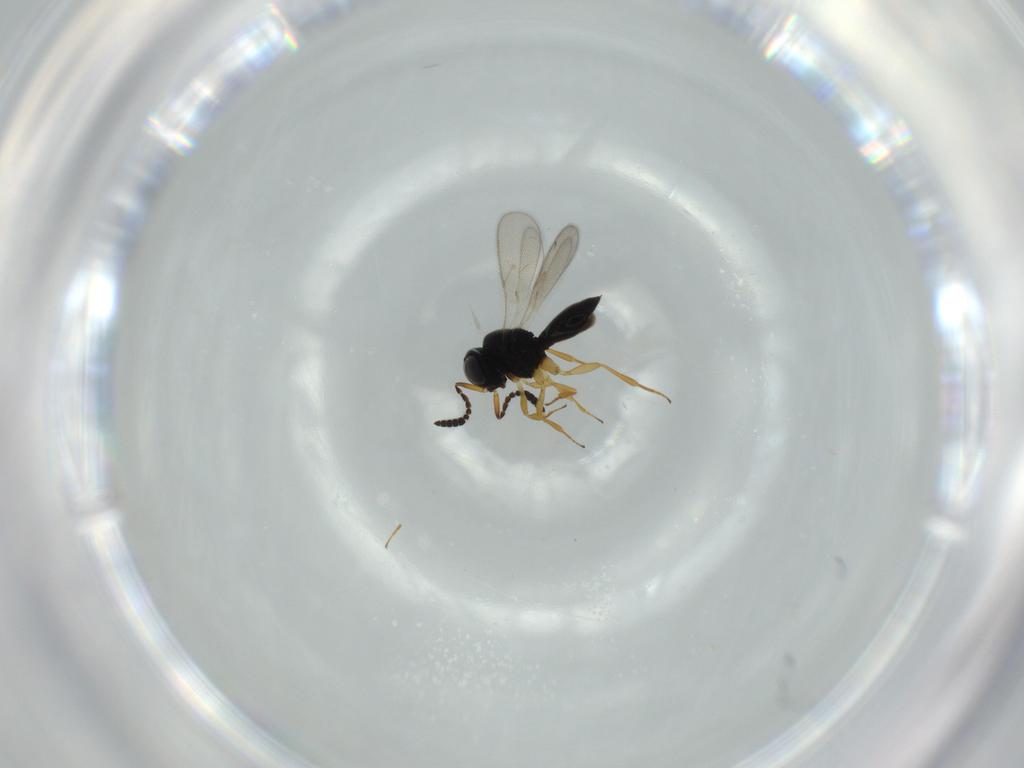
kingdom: Animalia
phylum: Arthropoda
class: Insecta
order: Hymenoptera
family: Scelionidae
